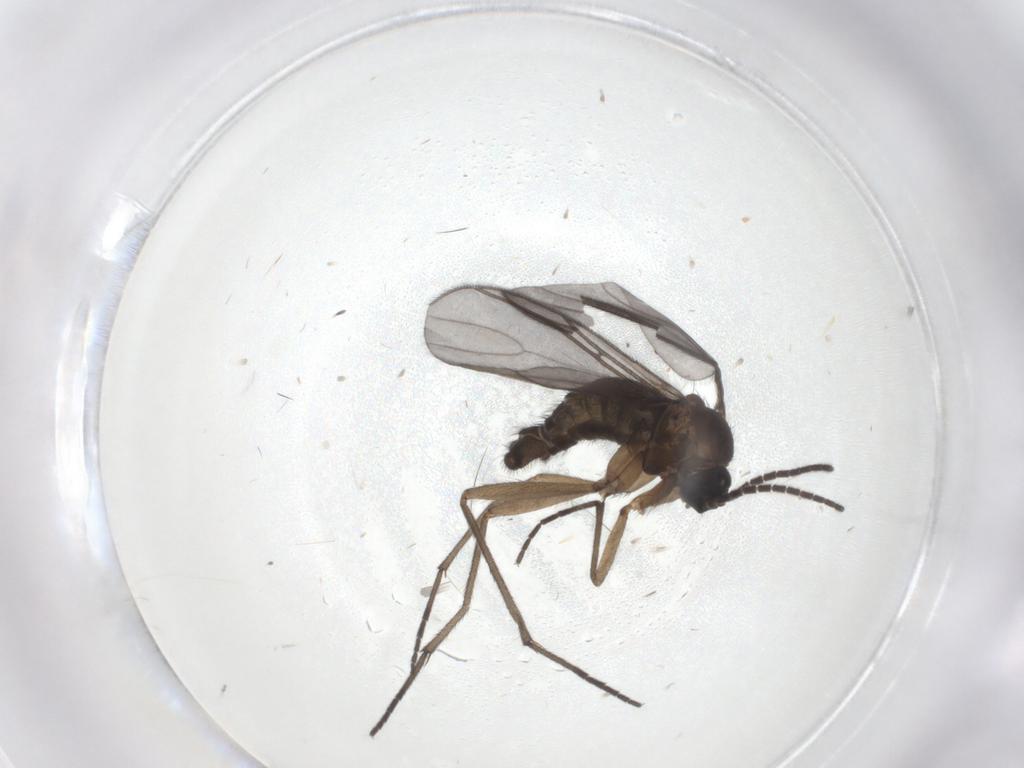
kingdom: Animalia
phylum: Arthropoda
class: Insecta
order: Diptera
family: Sciaridae
